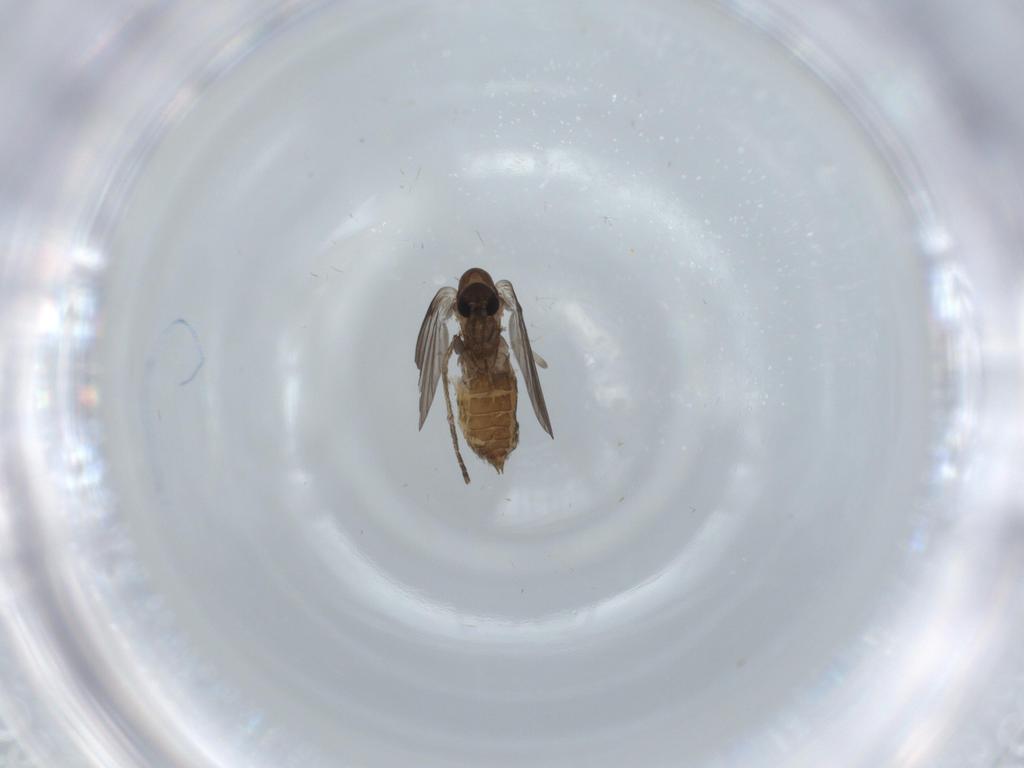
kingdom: Animalia
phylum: Arthropoda
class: Insecta
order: Diptera
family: Psychodidae
